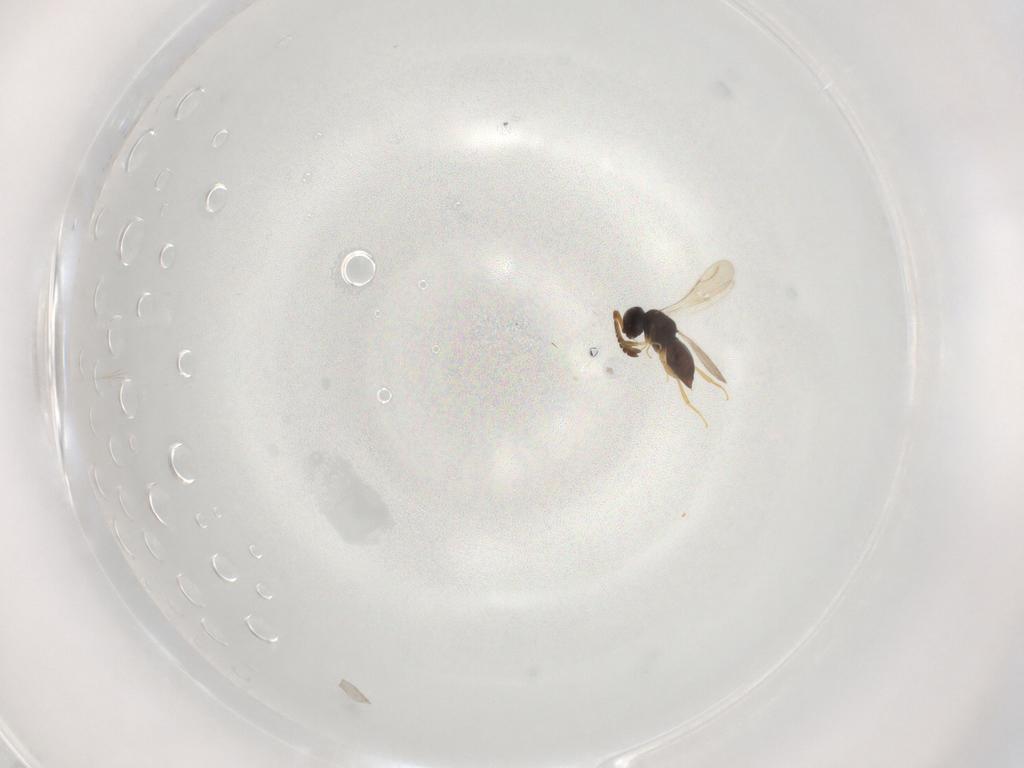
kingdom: Animalia
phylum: Arthropoda
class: Insecta
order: Hymenoptera
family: Ceraphronidae
